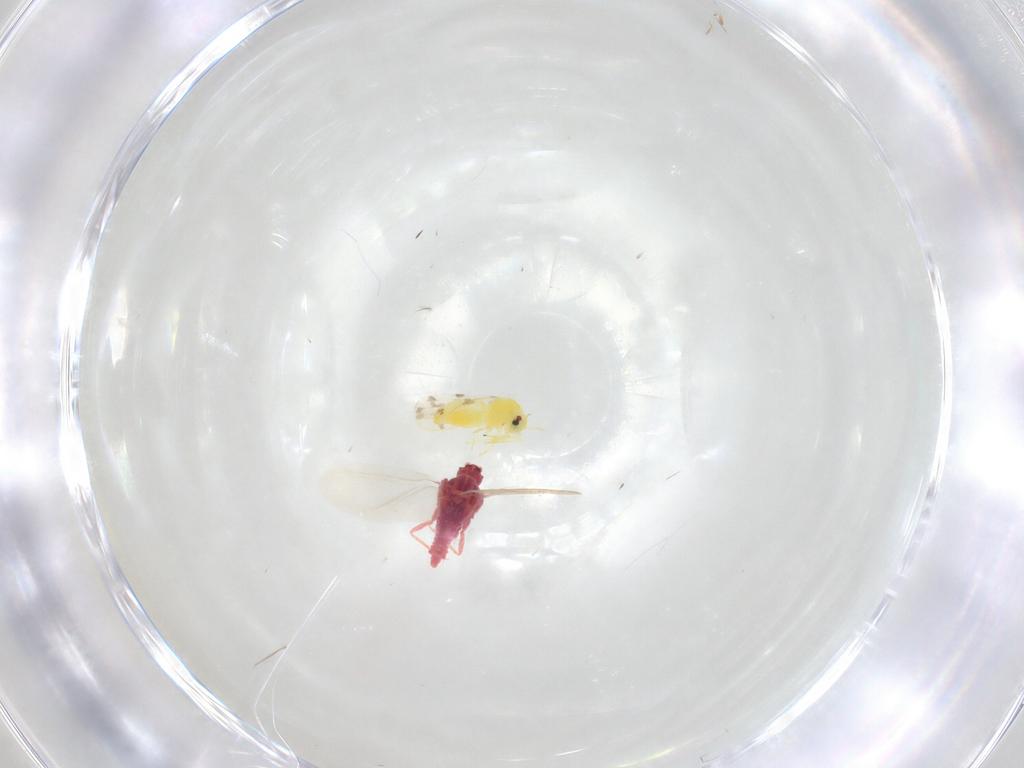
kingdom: Animalia
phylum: Arthropoda
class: Insecta
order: Hemiptera
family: Aleyrodidae
